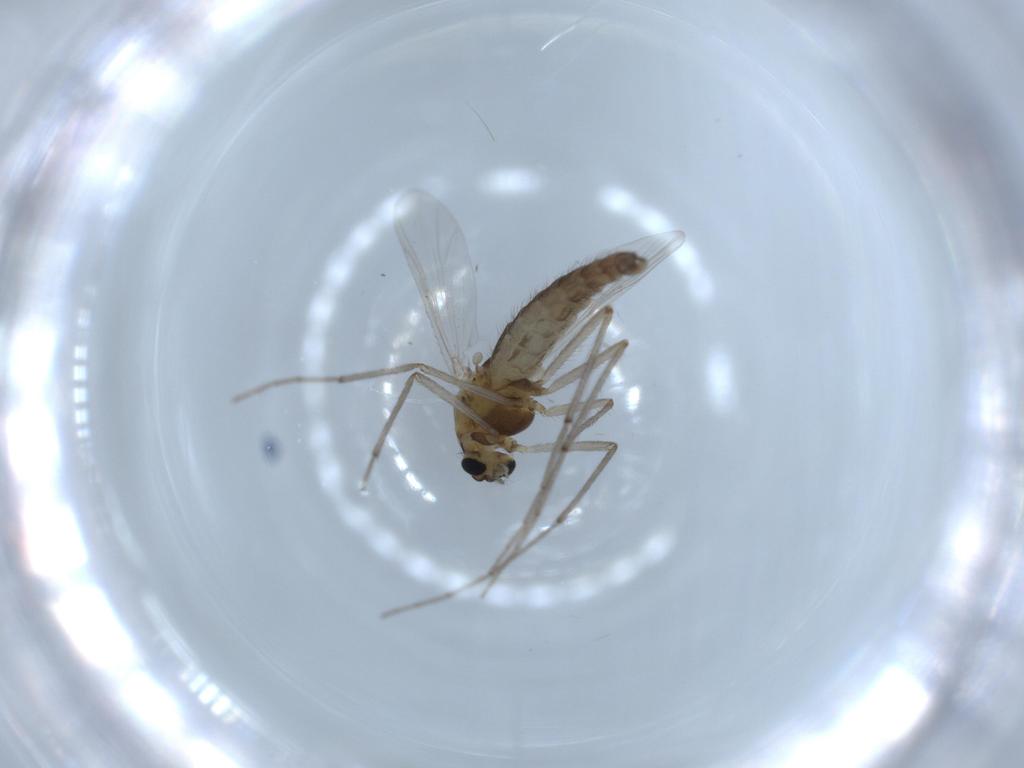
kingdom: Animalia
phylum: Arthropoda
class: Insecta
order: Diptera
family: Chironomidae
